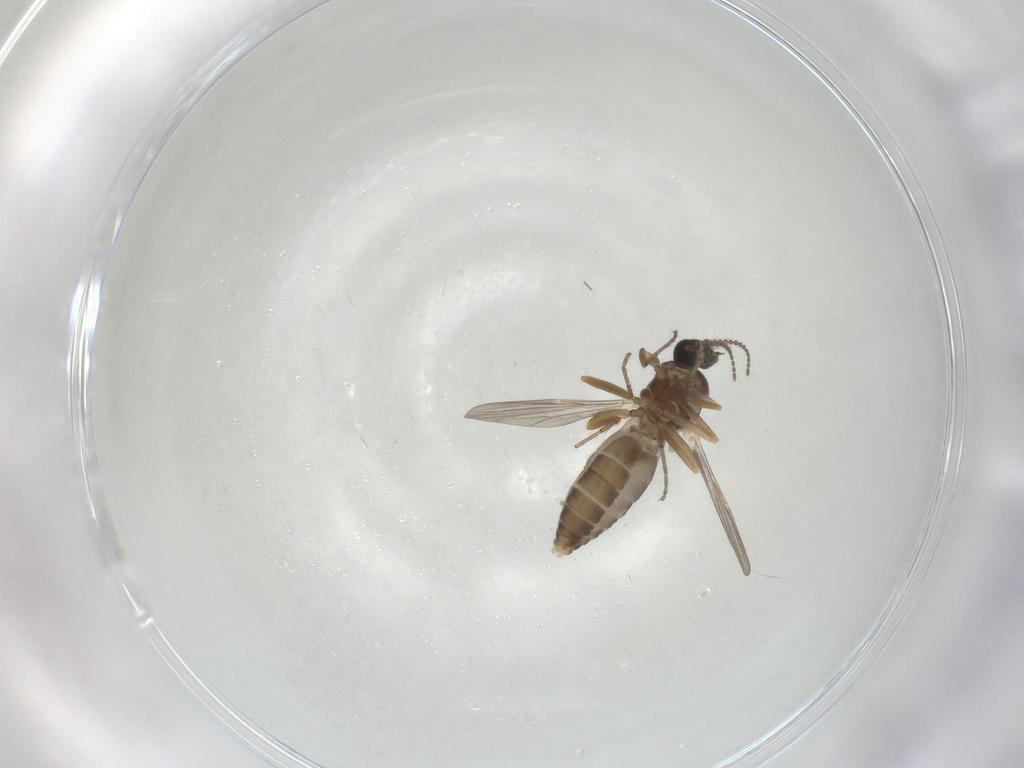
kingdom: Animalia
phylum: Arthropoda
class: Insecta
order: Diptera
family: Ceratopogonidae
